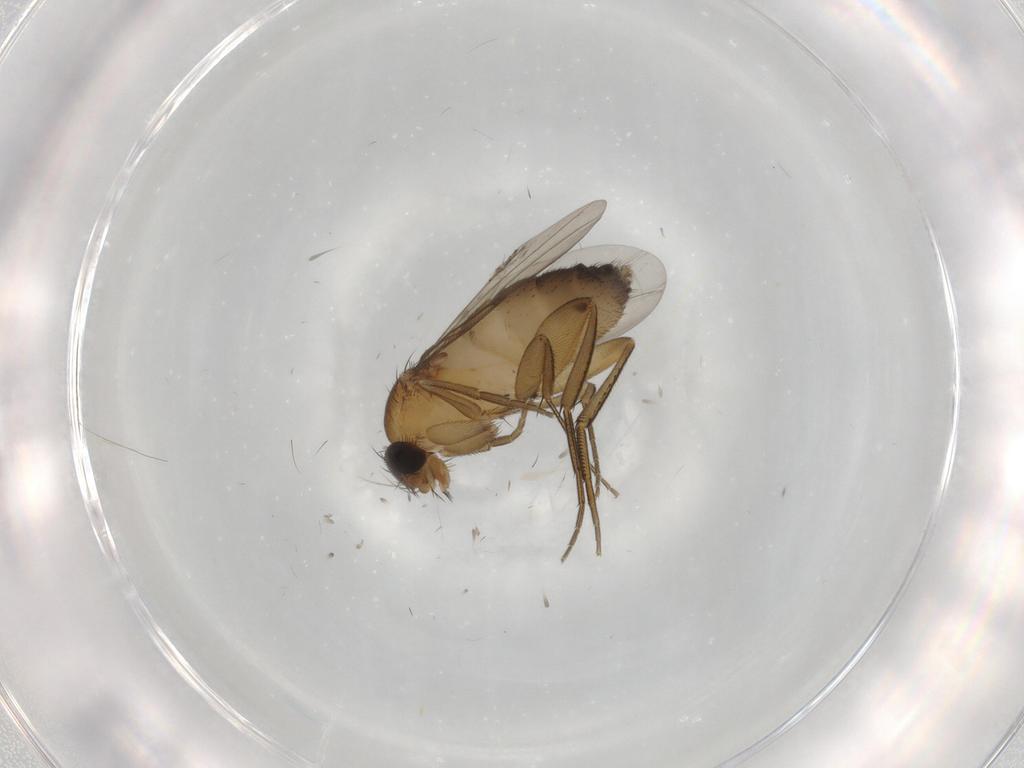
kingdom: Animalia
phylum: Arthropoda
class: Insecta
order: Diptera
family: Phoridae
